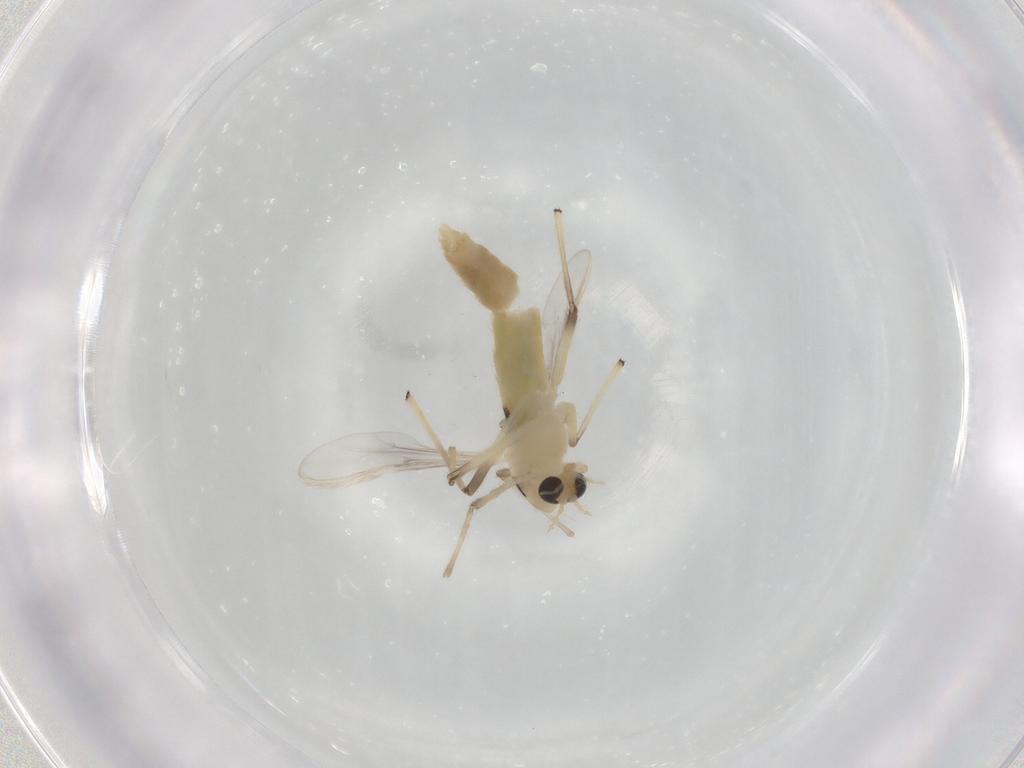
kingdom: Animalia
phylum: Arthropoda
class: Insecta
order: Diptera
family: Chironomidae
